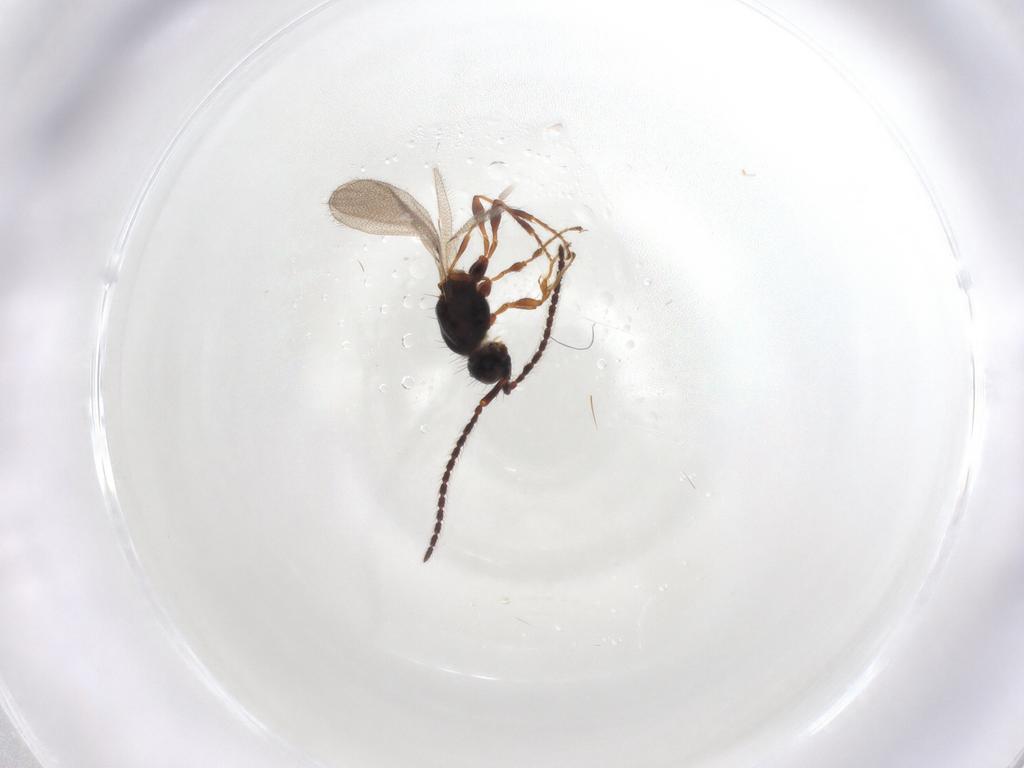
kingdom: Animalia
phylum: Arthropoda
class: Insecta
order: Hymenoptera
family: Diapriidae
